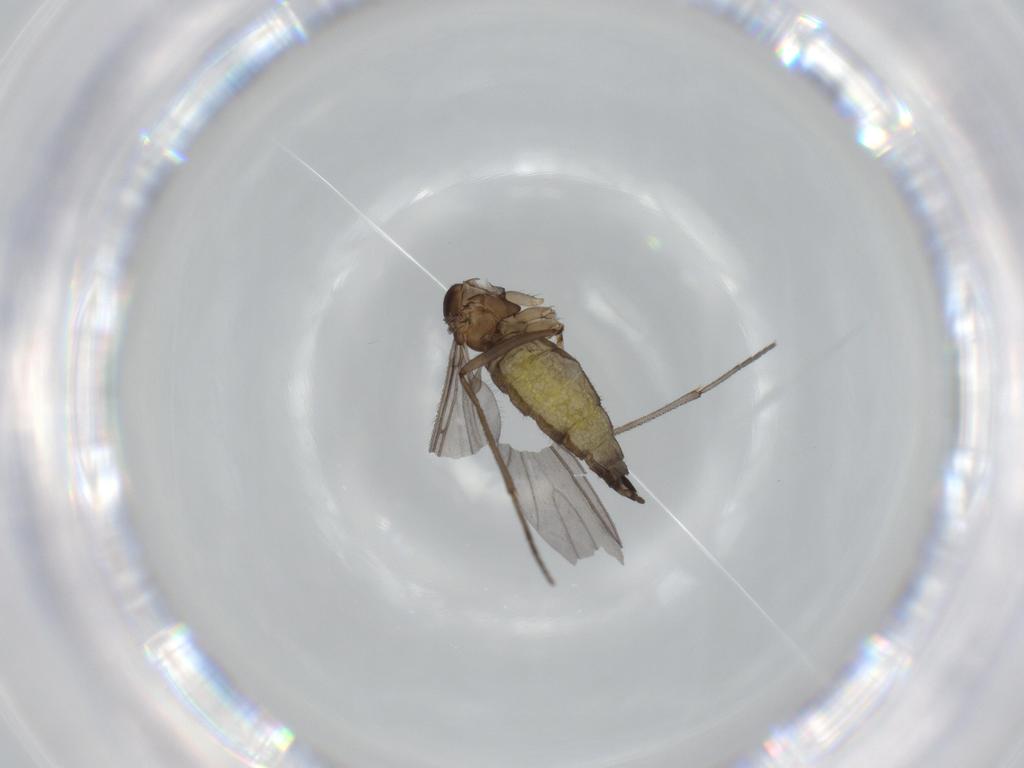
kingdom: Animalia
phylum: Arthropoda
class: Insecta
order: Diptera
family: Sciaridae
